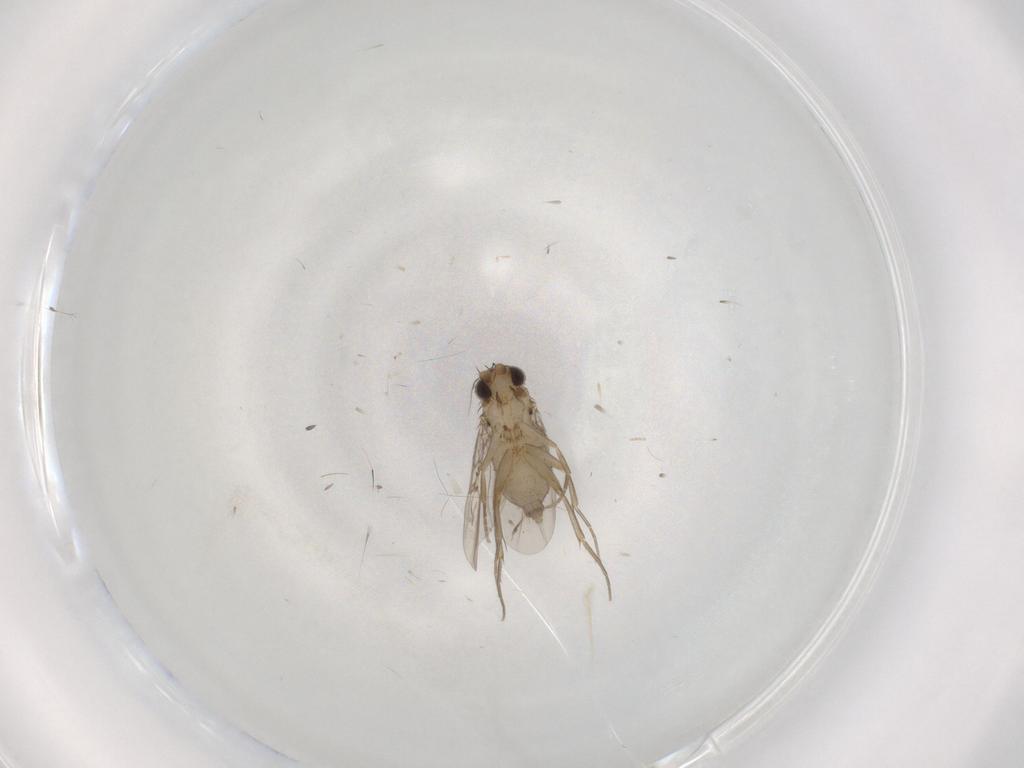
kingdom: Animalia
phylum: Arthropoda
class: Insecta
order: Diptera
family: Phoridae
